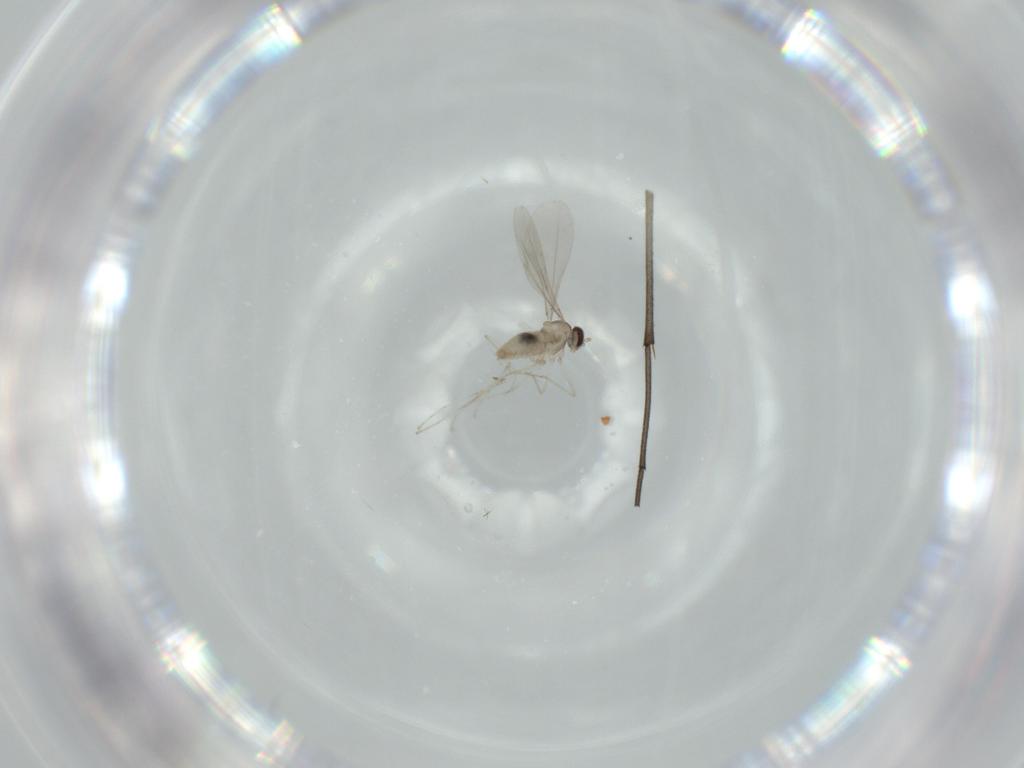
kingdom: Animalia
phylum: Arthropoda
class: Insecta
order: Diptera
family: Sciaridae
